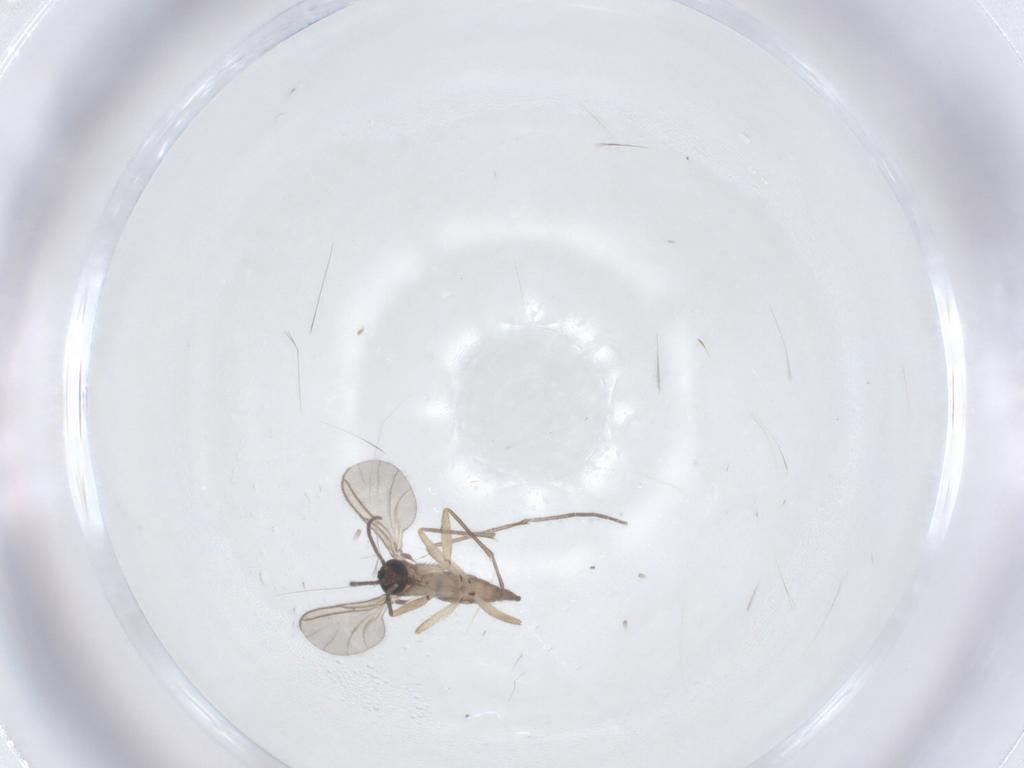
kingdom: Animalia
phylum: Arthropoda
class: Insecta
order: Diptera
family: Sciaridae
